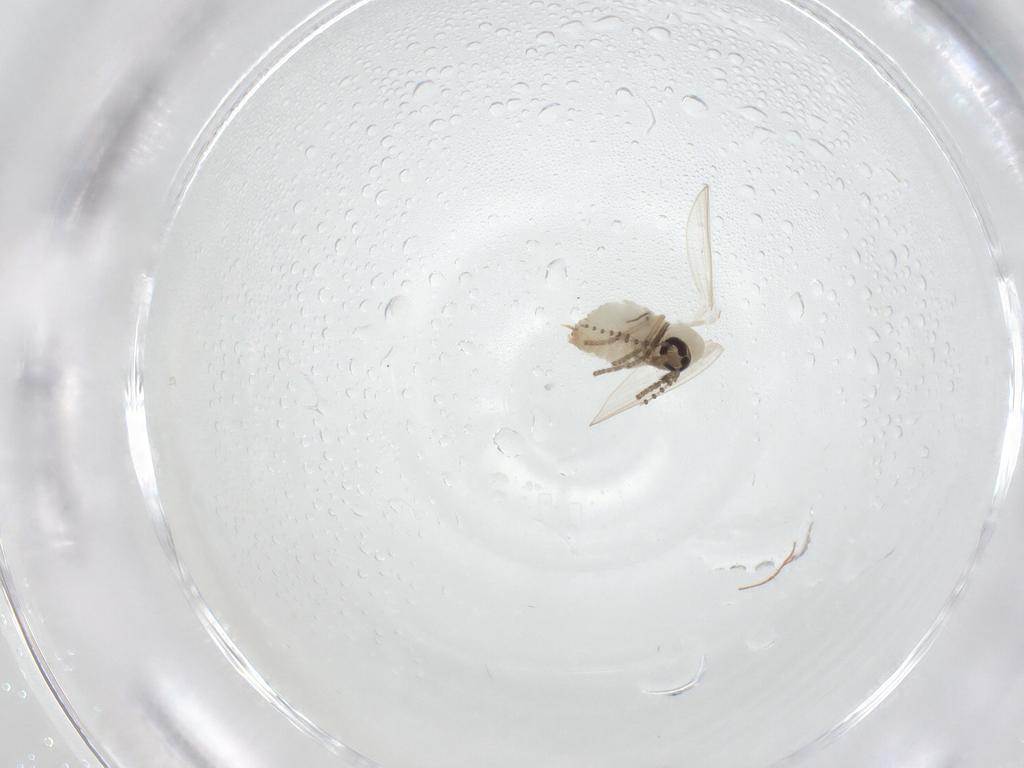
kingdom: Animalia
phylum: Arthropoda
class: Insecta
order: Diptera
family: Psychodidae
